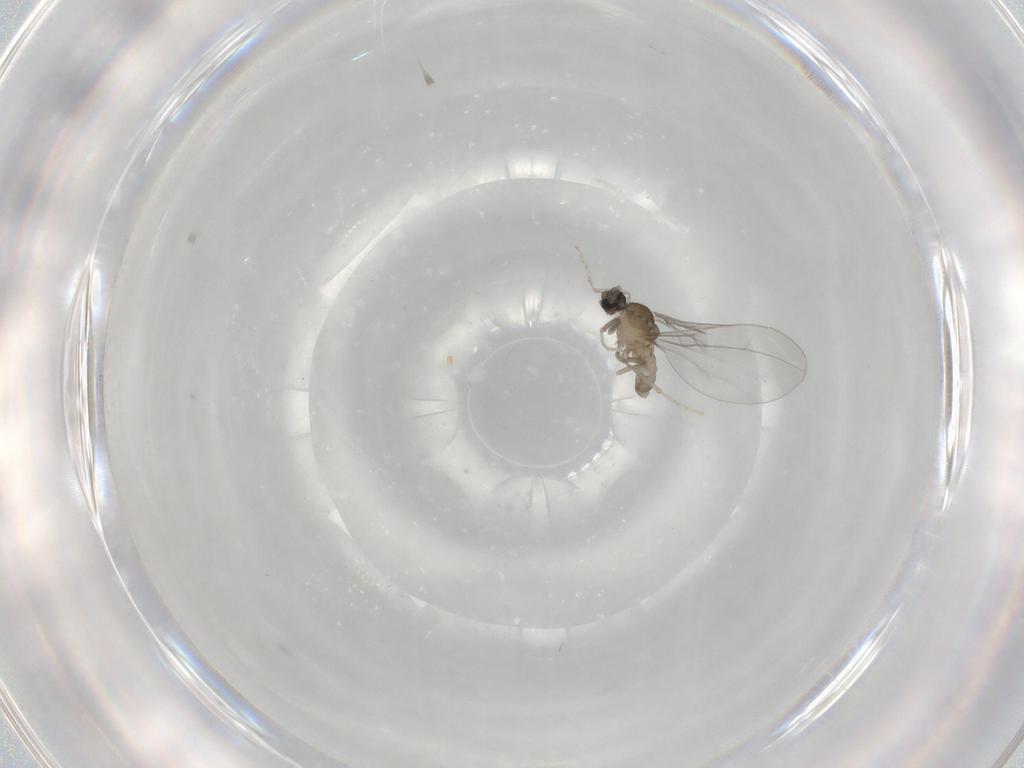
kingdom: Animalia
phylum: Arthropoda
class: Insecta
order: Diptera
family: Cecidomyiidae
